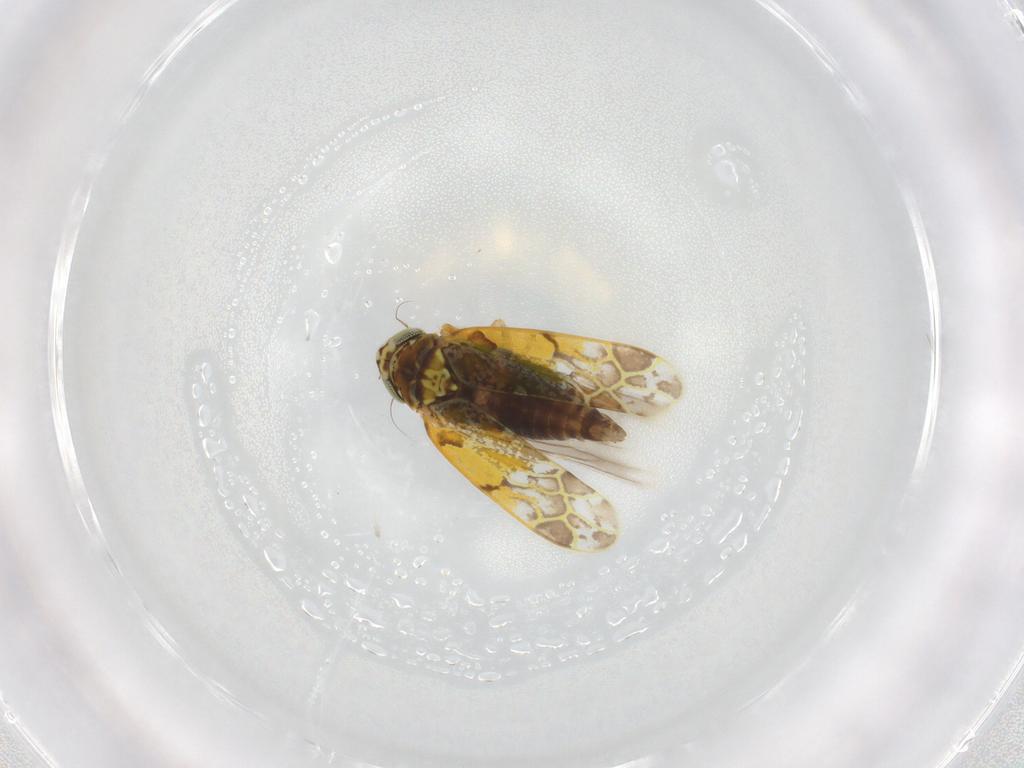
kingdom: Animalia
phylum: Arthropoda
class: Insecta
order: Hemiptera
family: Cicadellidae
